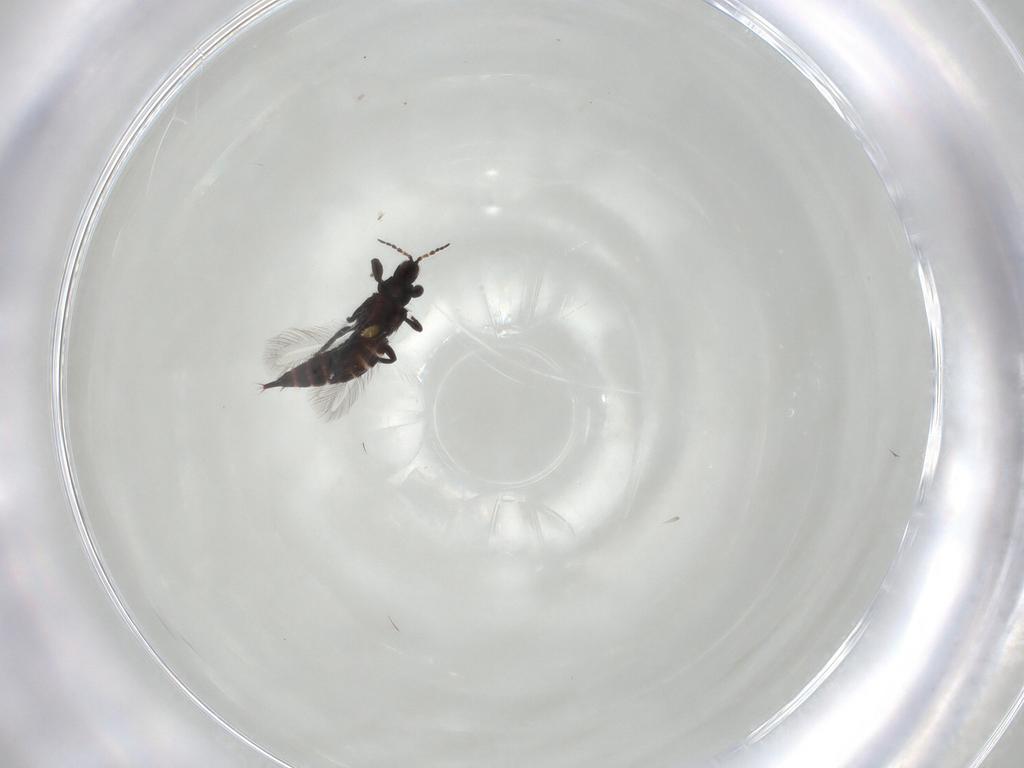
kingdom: Animalia
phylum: Arthropoda
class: Insecta
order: Thysanoptera
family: Phlaeothripidae
